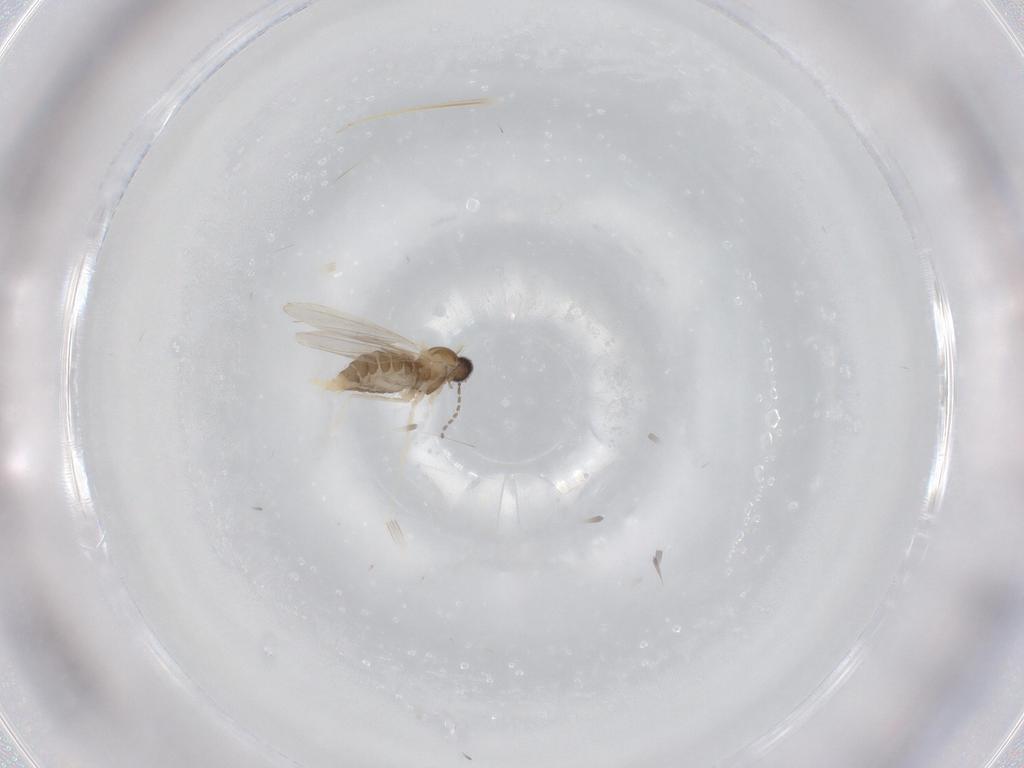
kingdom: Animalia
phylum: Arthropoda
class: Insecta
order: Diptera
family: Cecidomyiidae
